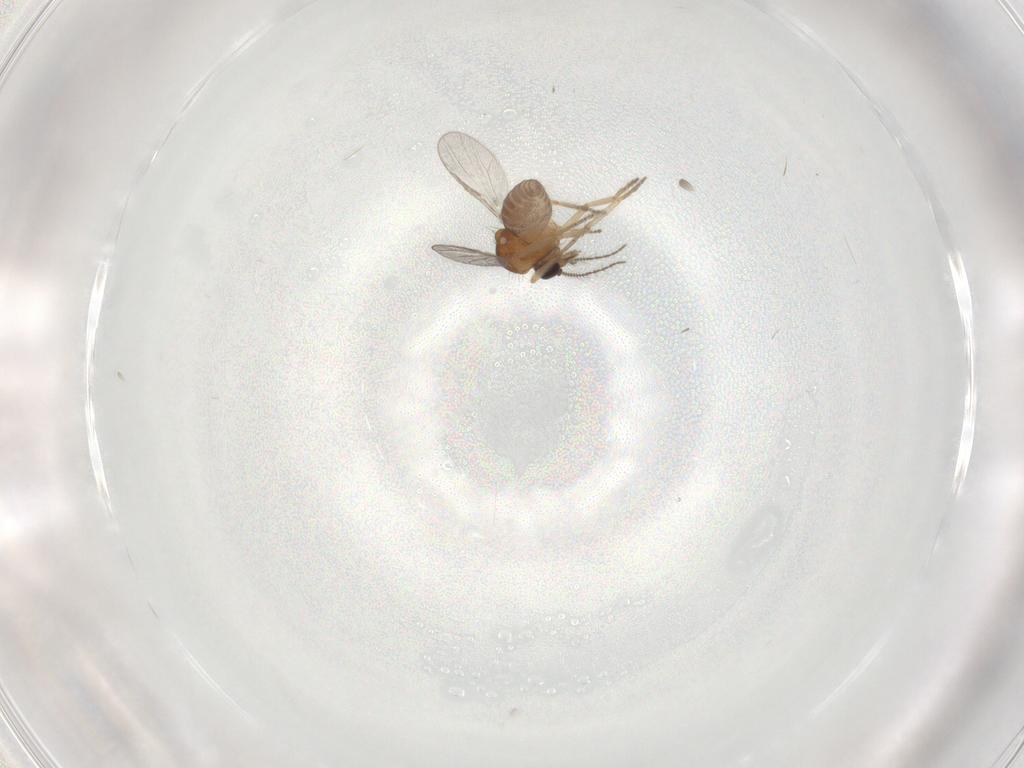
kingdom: Animalia
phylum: Arthropoda
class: Insecta
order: Diptera
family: Ceratopogonidae
